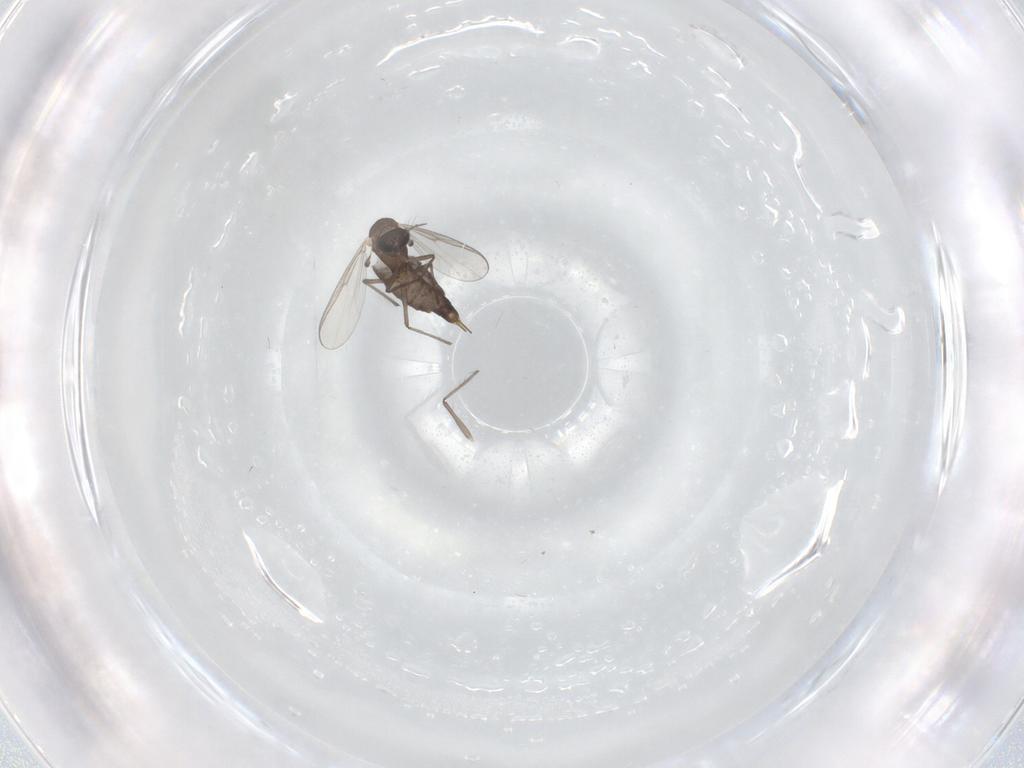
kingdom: Animalia
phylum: Arthropoda
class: Insecta
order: Diptera
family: Chironomidae
